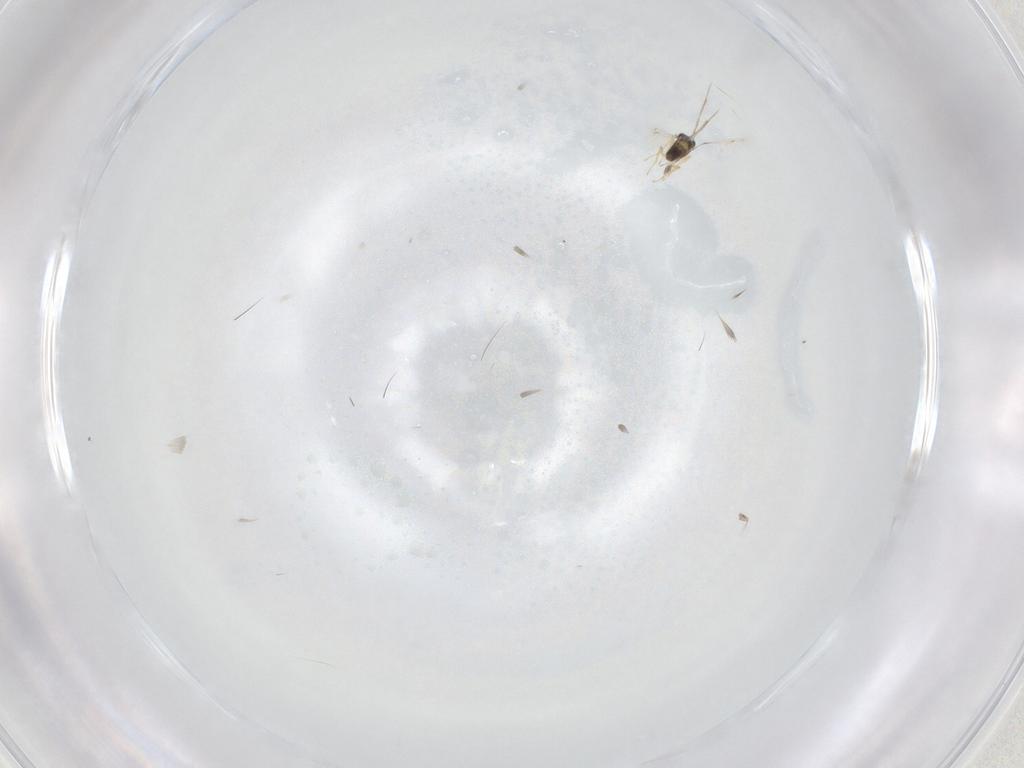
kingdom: Animalia
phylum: Arthropoda
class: Insecta
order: Hymenoptera
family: Mymaridae
